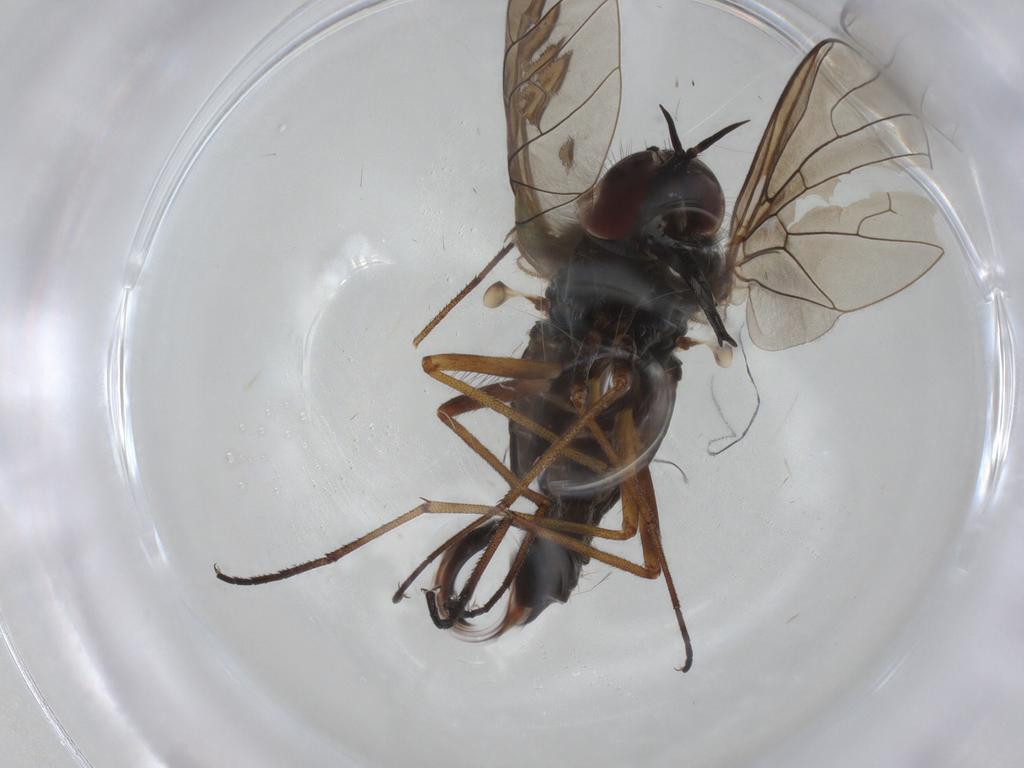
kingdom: Animalia
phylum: Arthropoda
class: Insecta
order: Diptera
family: Cecidomyiidae
